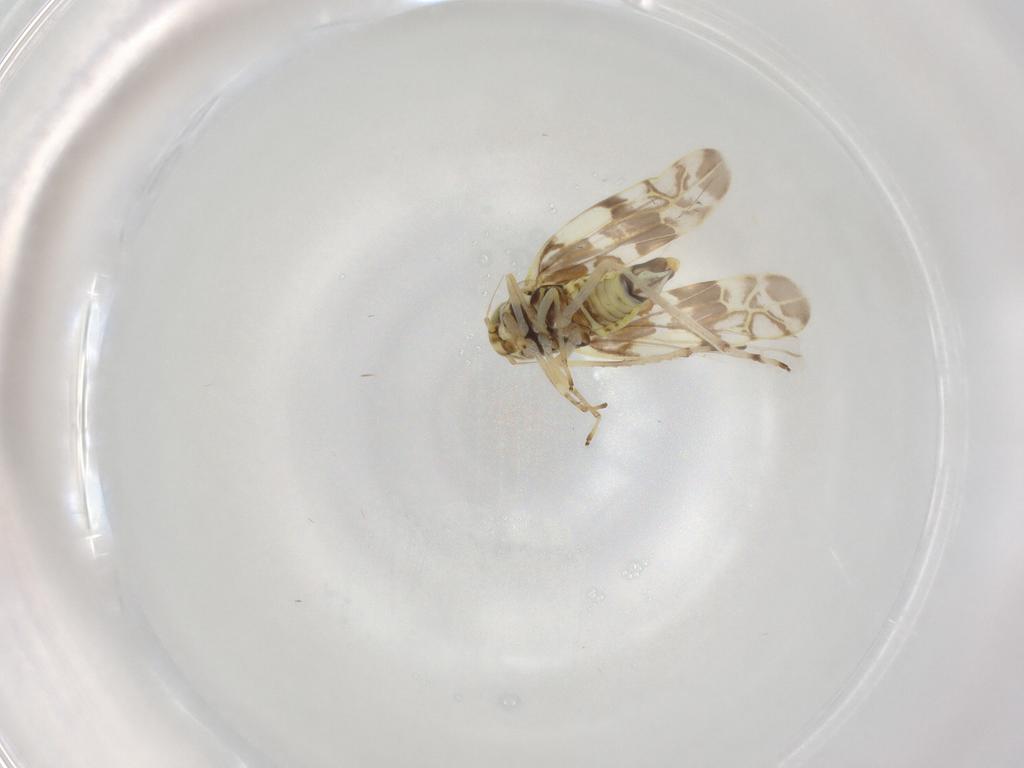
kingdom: Animalia
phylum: Arthropoda
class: Insecta
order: Hemiptera
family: Cicadellidae
